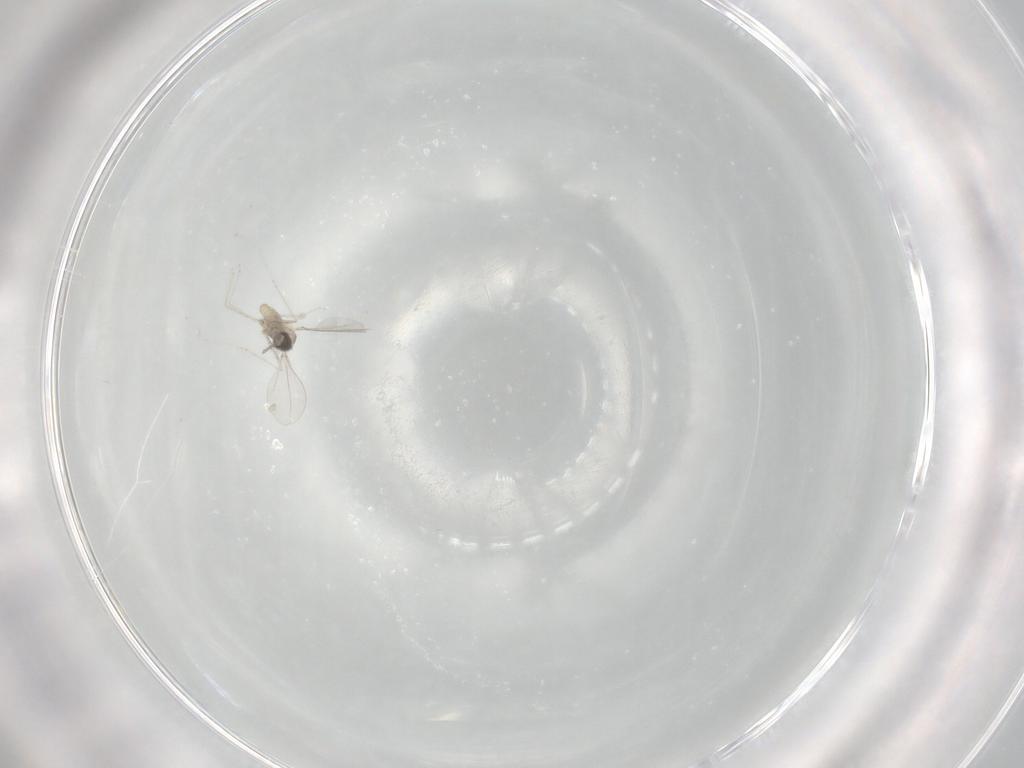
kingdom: Animalia
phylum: Arthropoda
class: Insecta
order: Diptera
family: Cecidomyiidae
